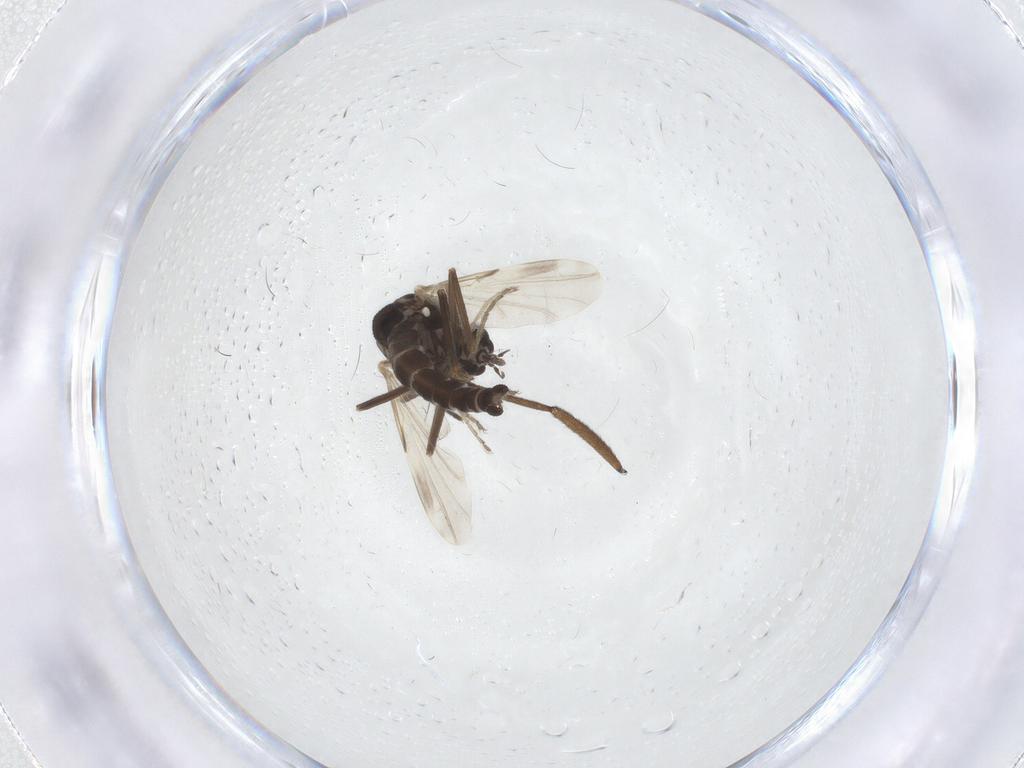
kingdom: Animalia
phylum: Arthropoda
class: Insecta
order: Diptera
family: Ceratopogonidae
